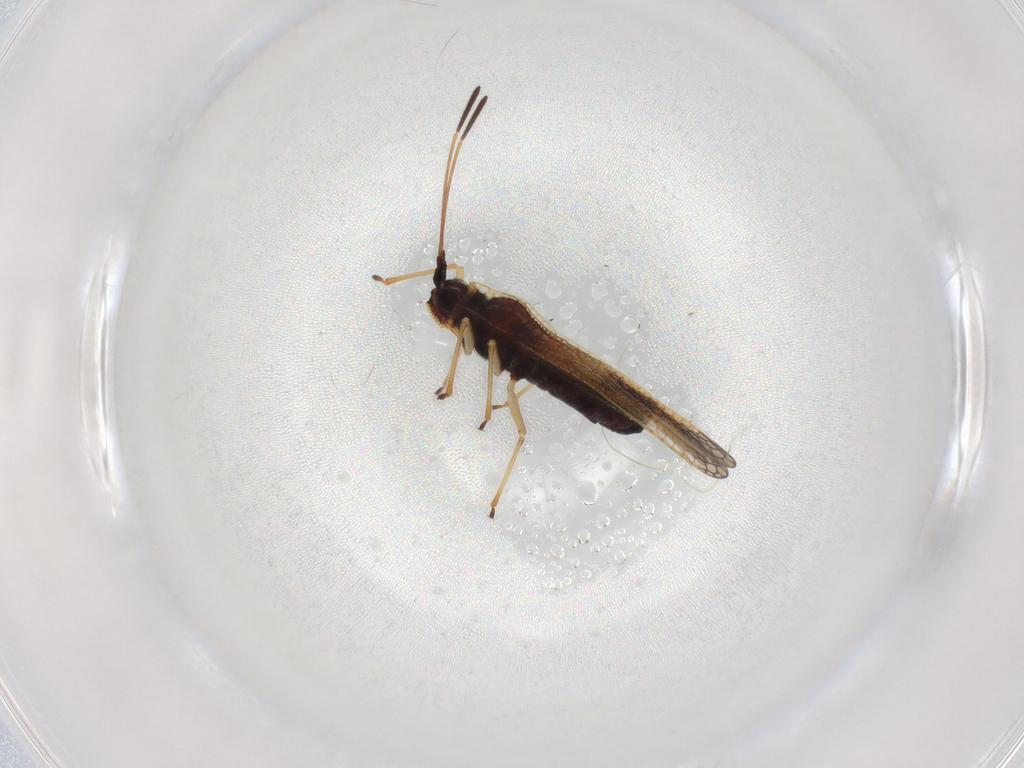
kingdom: Animalia
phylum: Arthropoda
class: Insecta
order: Hemiptera
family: Tingidae
